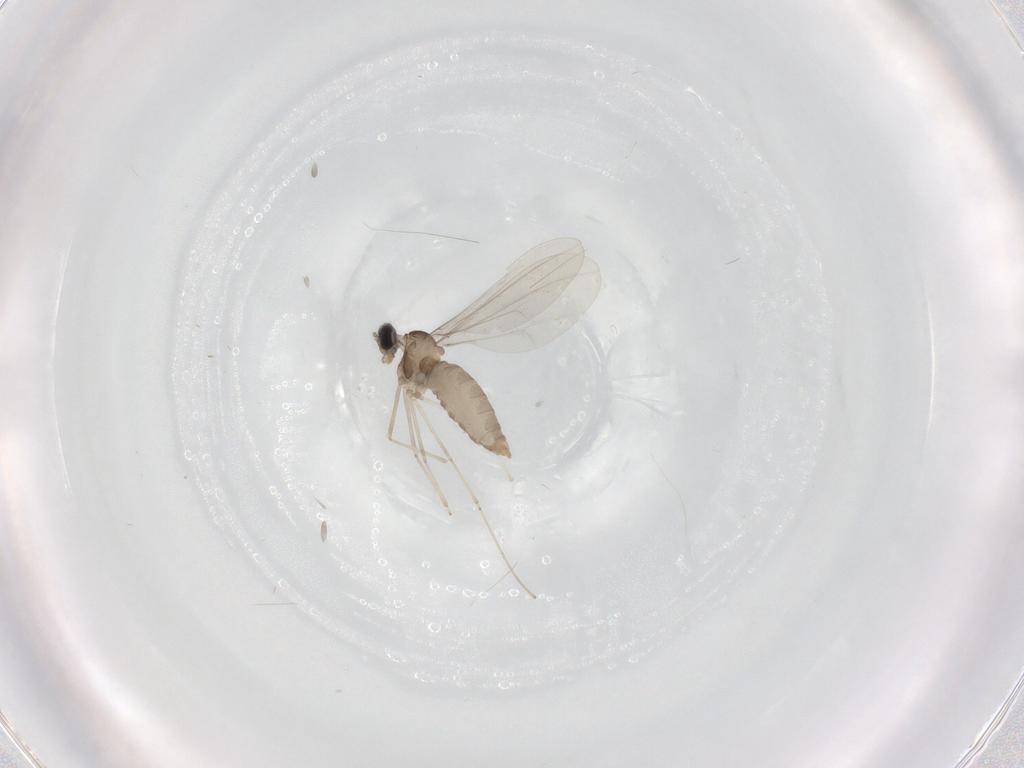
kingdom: Animalia
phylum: Arthropoda
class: Insecta
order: Diptera
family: Cecidomyiidae
